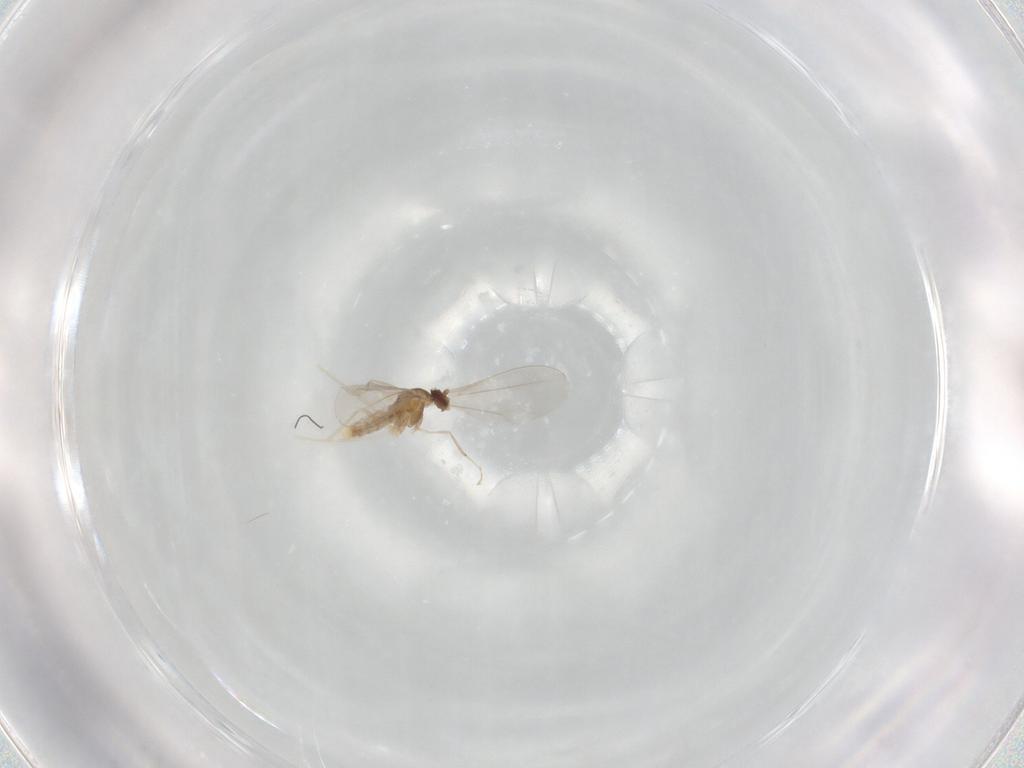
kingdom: Animalia
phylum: Arthropoda
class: Insecta
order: Diptera
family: Cecidomyiidae
